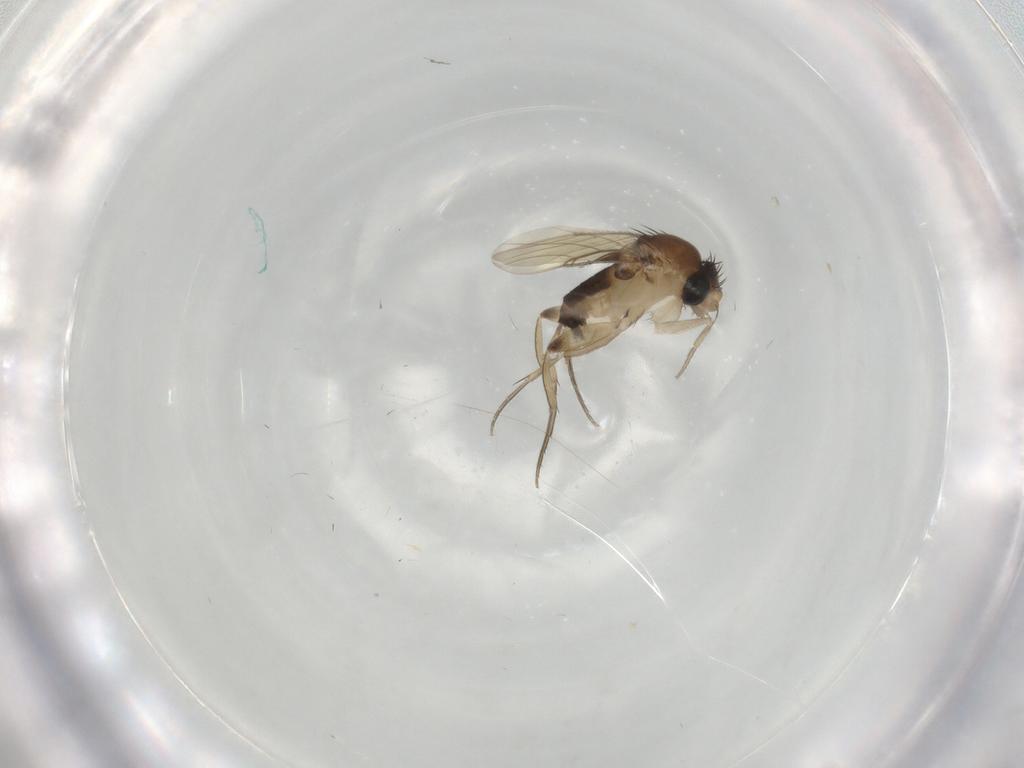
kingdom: Animalia
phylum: Arthropoda
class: Insecta
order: Diptera
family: Phoridae
